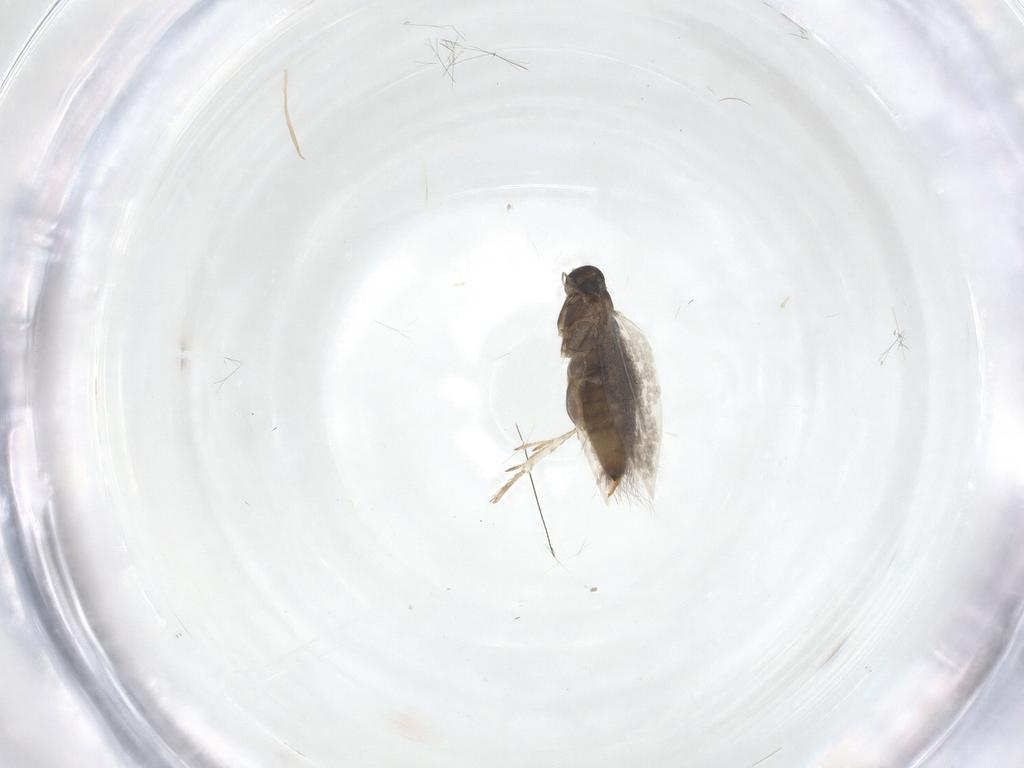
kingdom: Animalia
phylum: Arthropoda
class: Insecta
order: Lepidoptera
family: Heliozelidae
